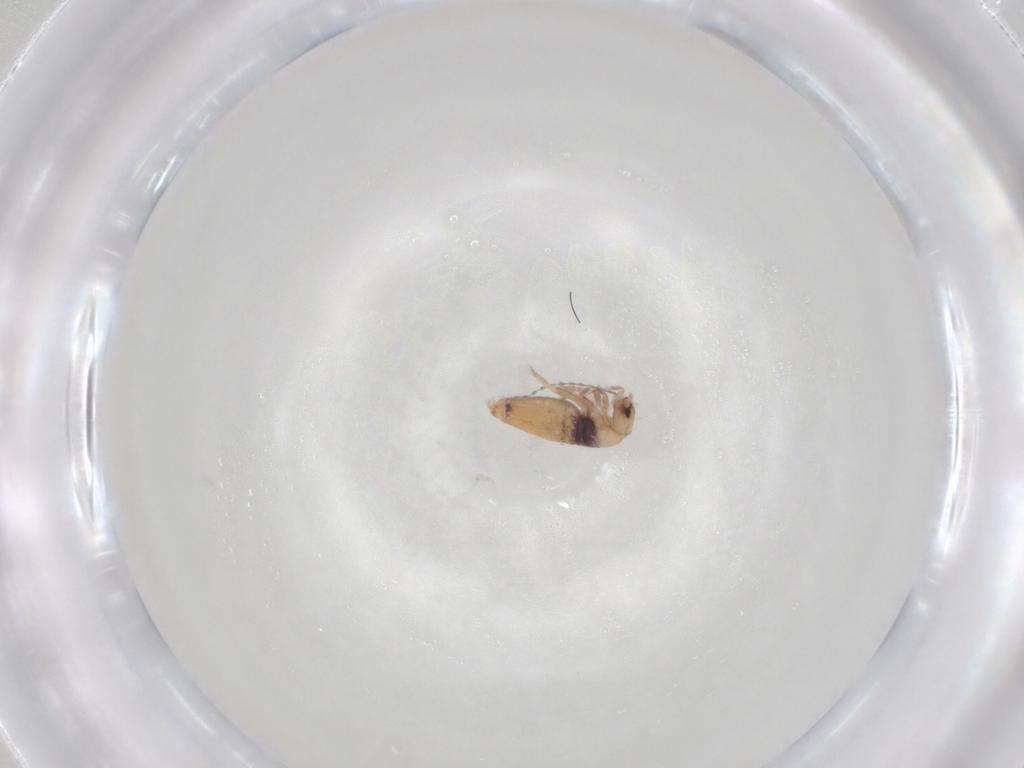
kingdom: Animalia
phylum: Arthropoda
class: Collembola
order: Entomobryomorpha
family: Entomobryidae
